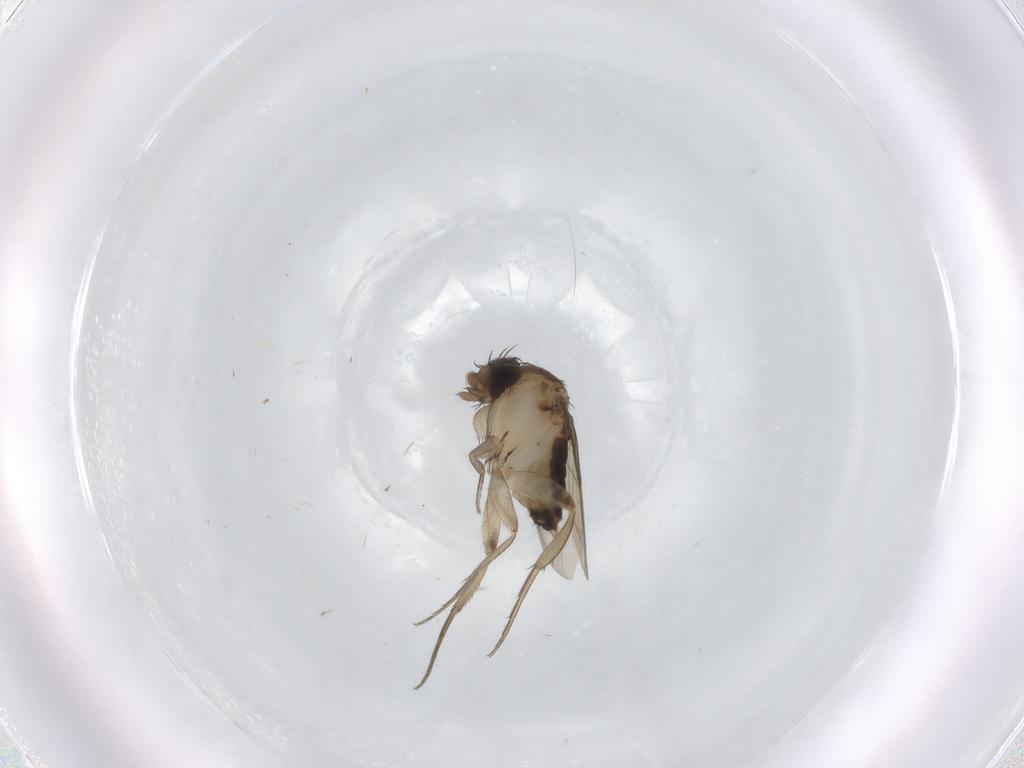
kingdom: Animalia
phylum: Arthropoda
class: Insecta
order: Diptera
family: Phoridae
